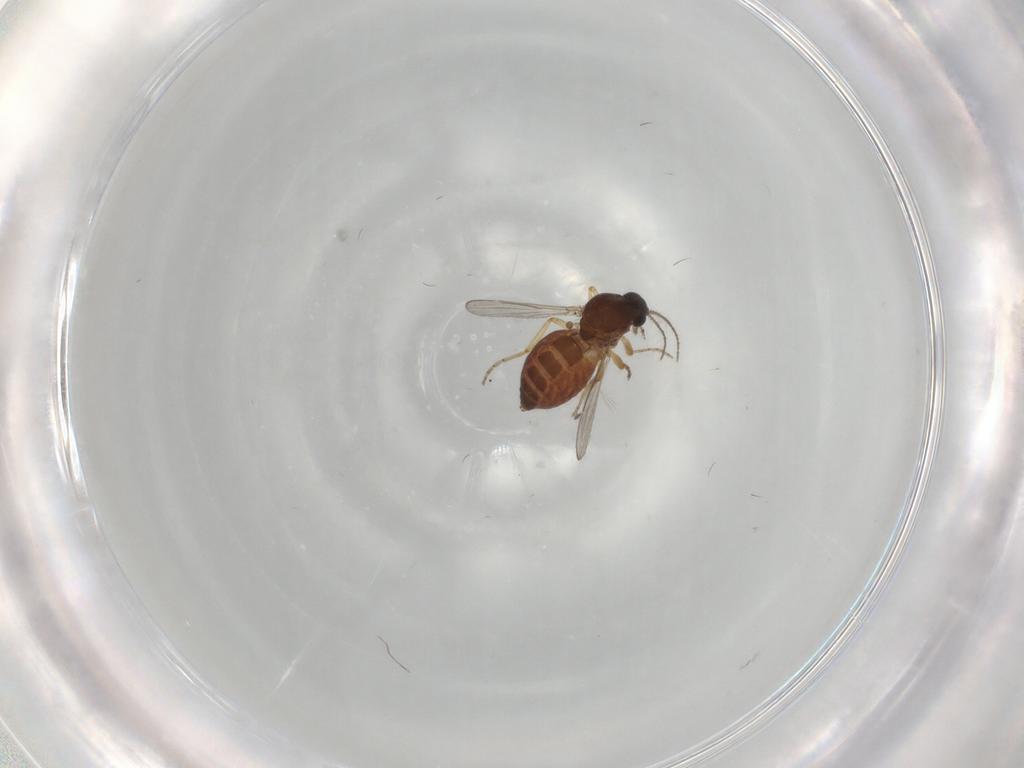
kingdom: Animalia
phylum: Arthropoda
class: Insecta
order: Diptera
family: Ceratopogonidae
